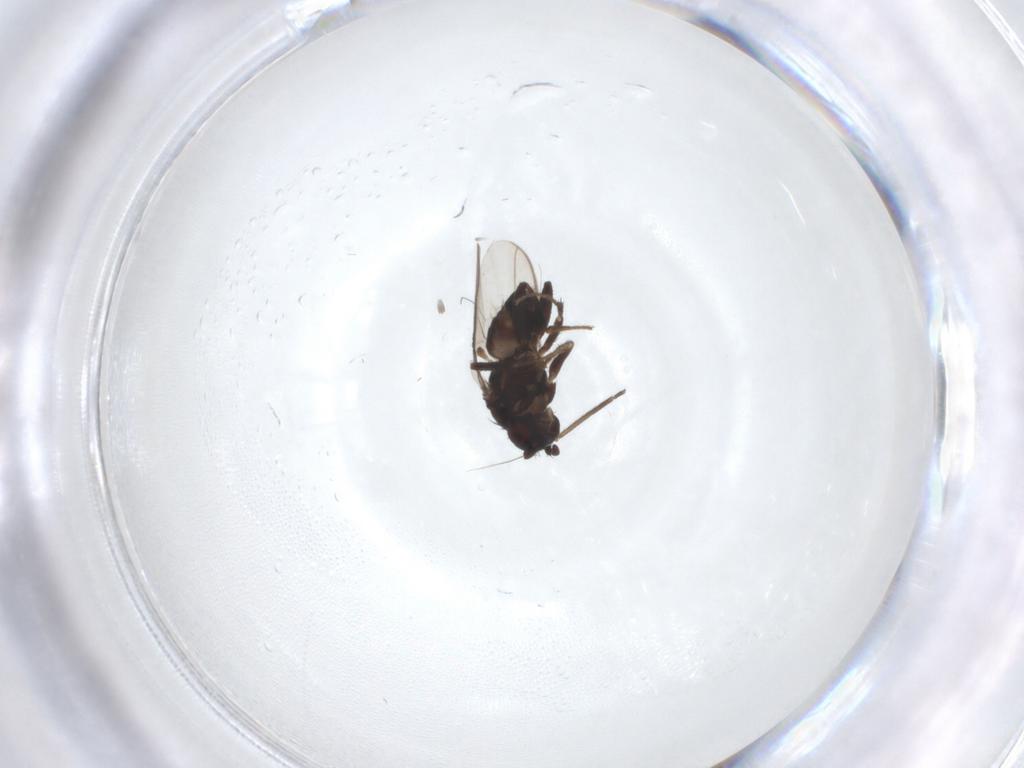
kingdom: Animalia
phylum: Arthropoda
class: Insecta
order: Diptera
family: Sphaeroceridae
